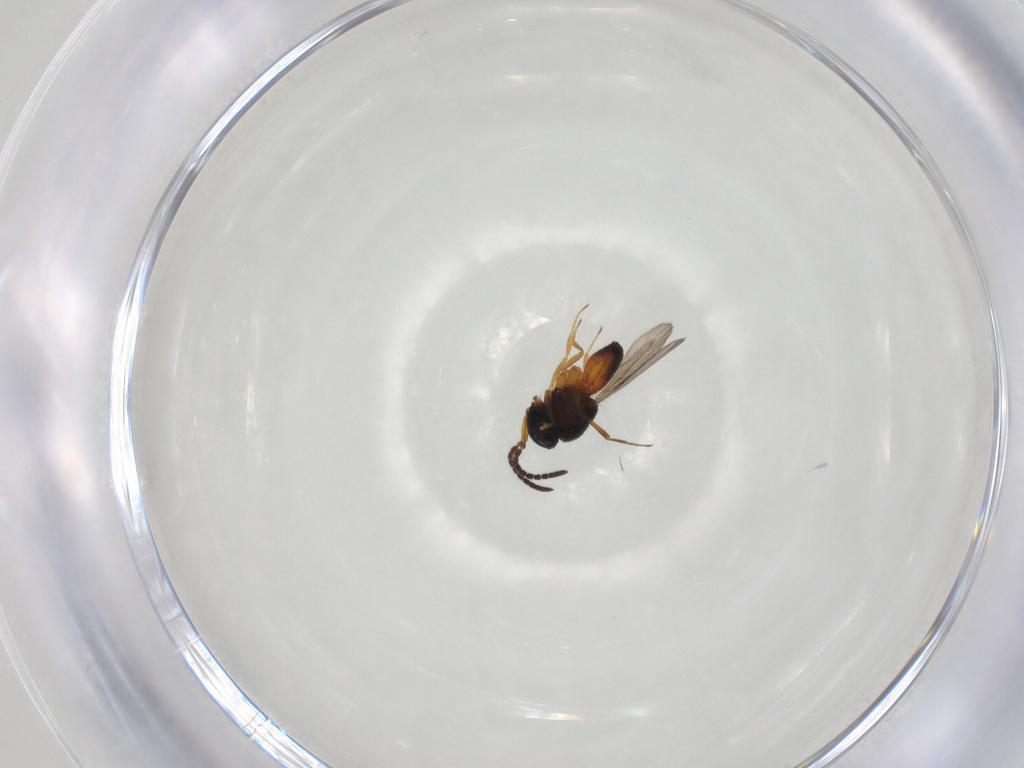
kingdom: Animalia
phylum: Arthropoda
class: Insecta
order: Hymenoptera
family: Scelionidae
